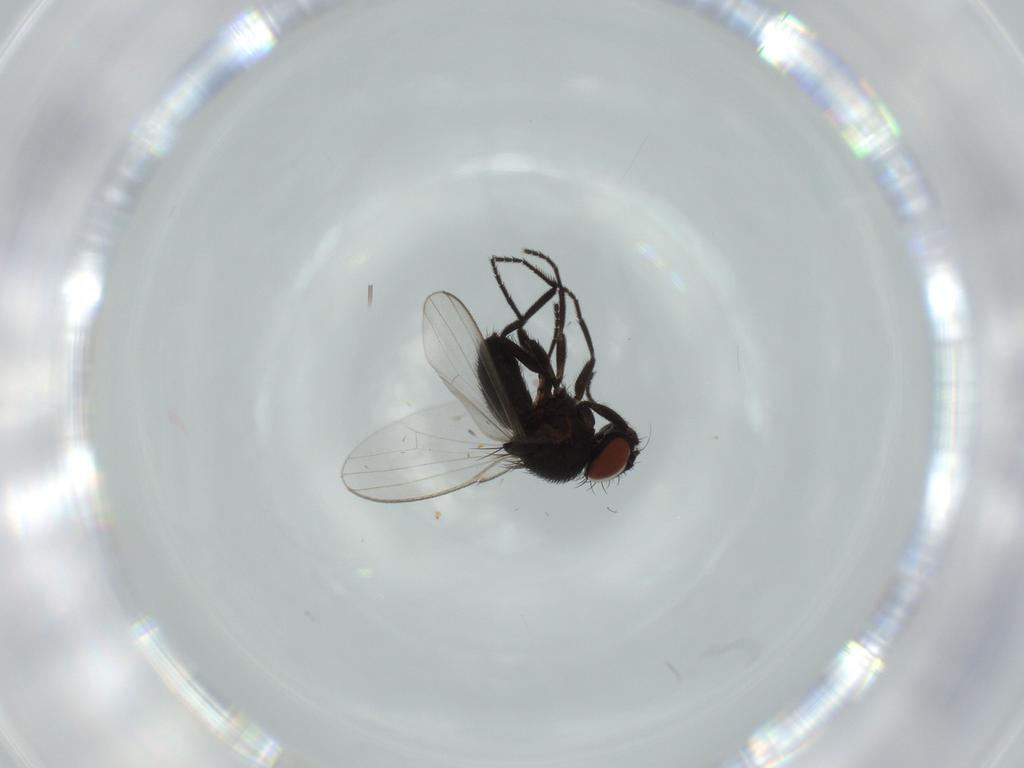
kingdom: Animalia
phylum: Arthropoda
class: Insecta
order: Diptera
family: Milichiidae
